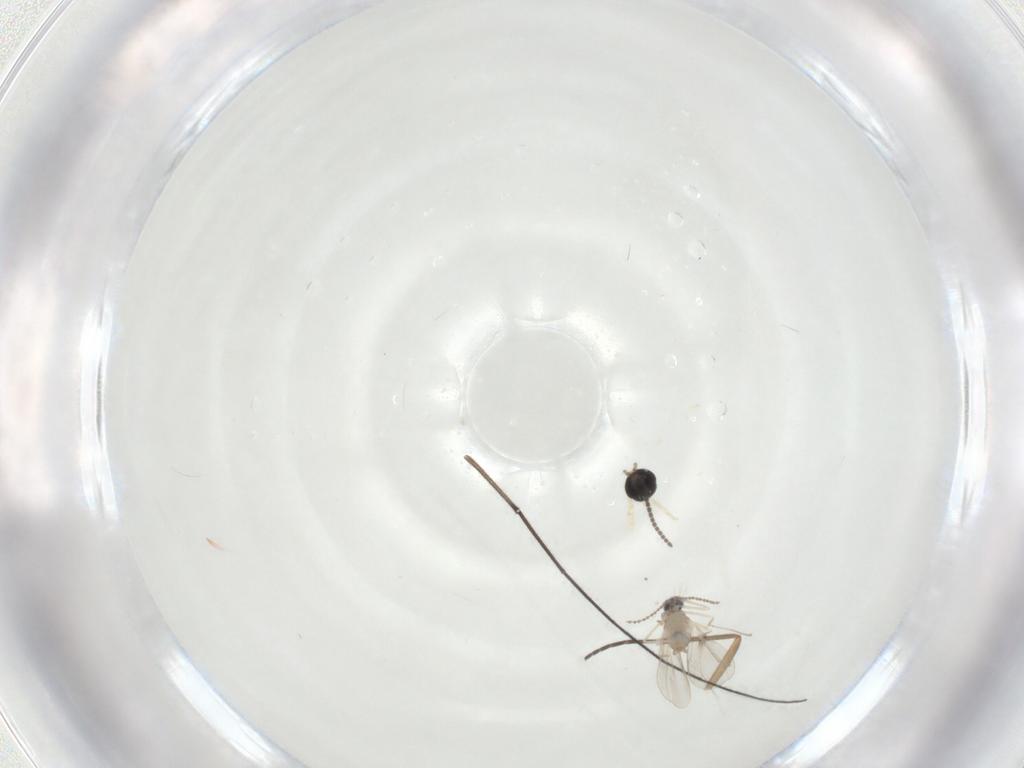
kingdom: Animalia
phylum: Arthropoda
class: Insecta
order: Diptera
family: Sciaridae
